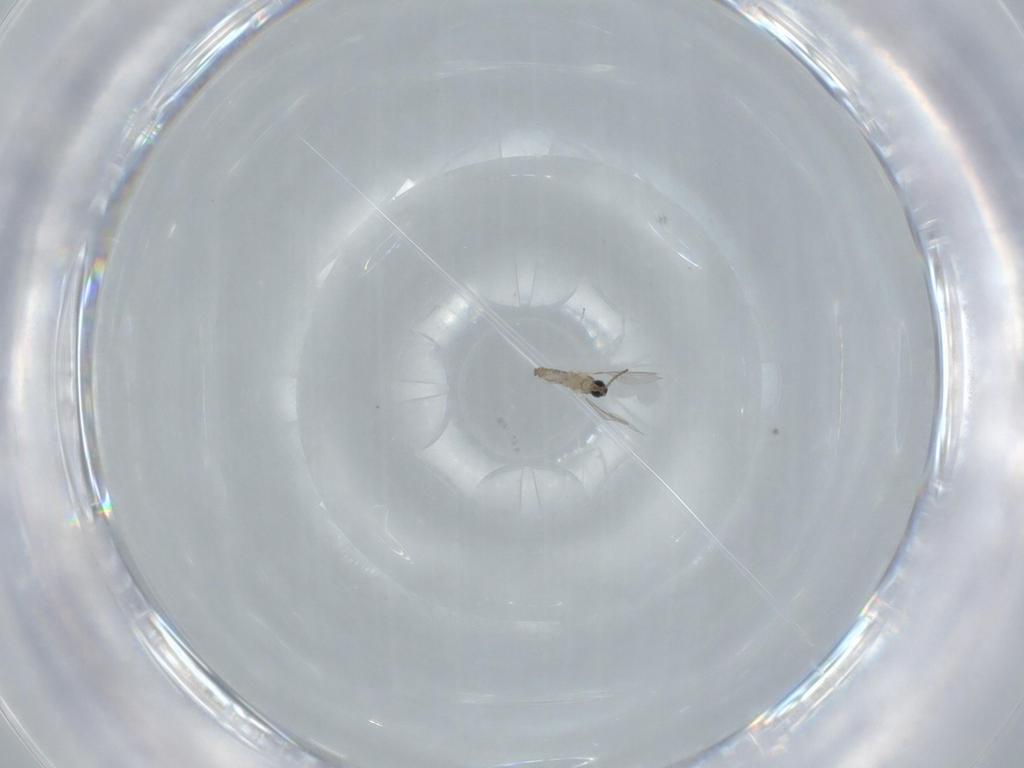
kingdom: Animalia
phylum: Arthropoda
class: Insecta
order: Diptera
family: Cecidomyiidae
